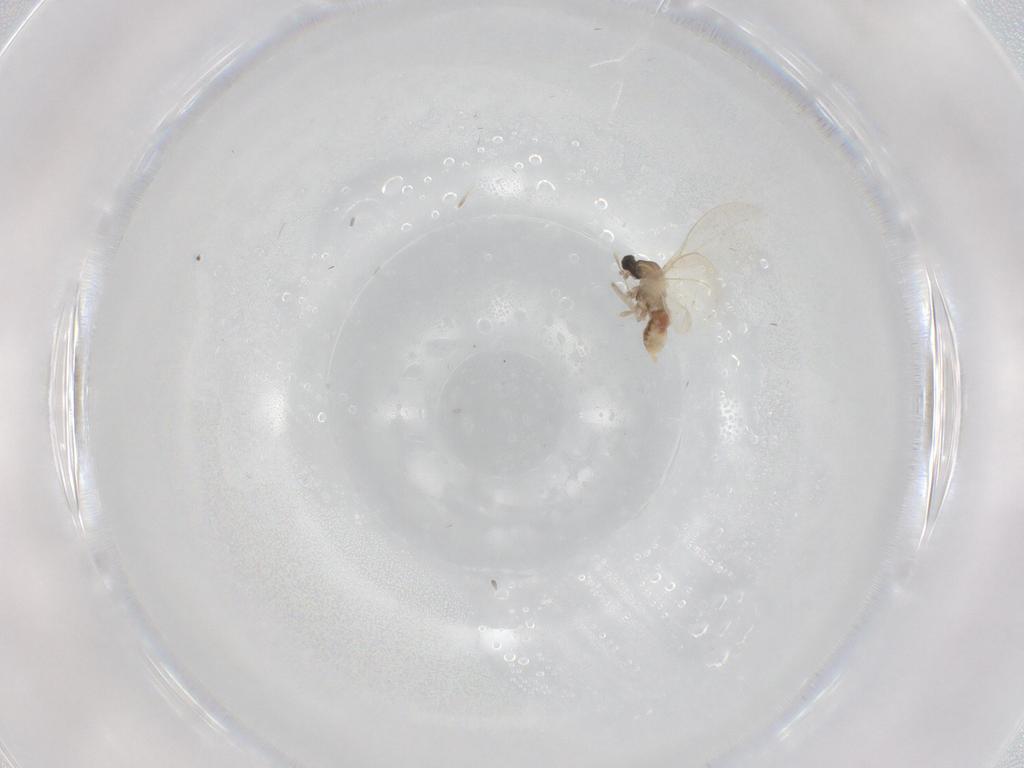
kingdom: Animalia
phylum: Arthropoda
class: Insecta
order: Diptera
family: Cecidomyiidae
